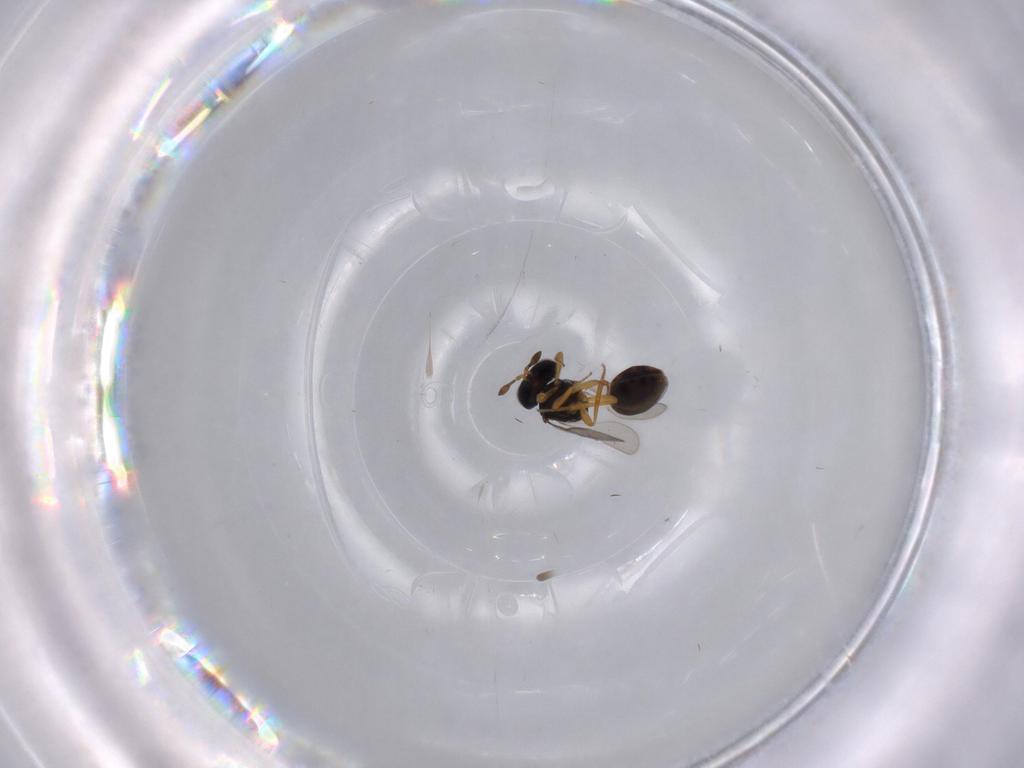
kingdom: Animalia
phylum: Arthropoda
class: Insecta
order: Hymenoptera
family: Scelionidae
